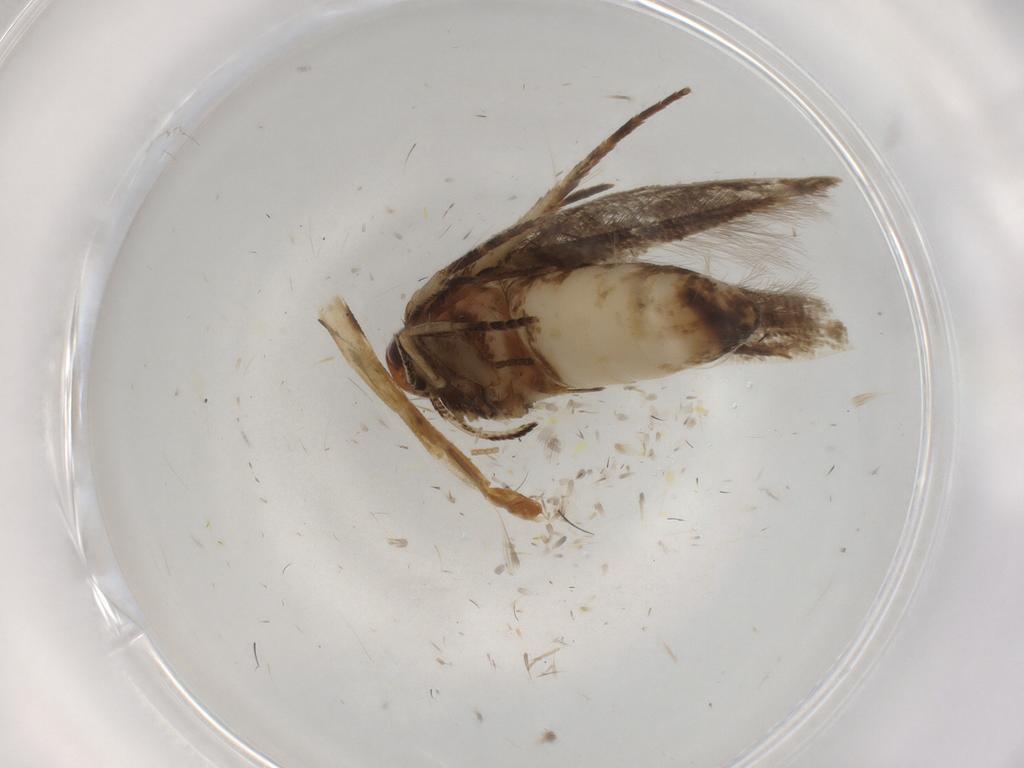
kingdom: Animalia
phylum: Arthropoda
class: Insecta
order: Lepidoptera
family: Cosmopterigidae
